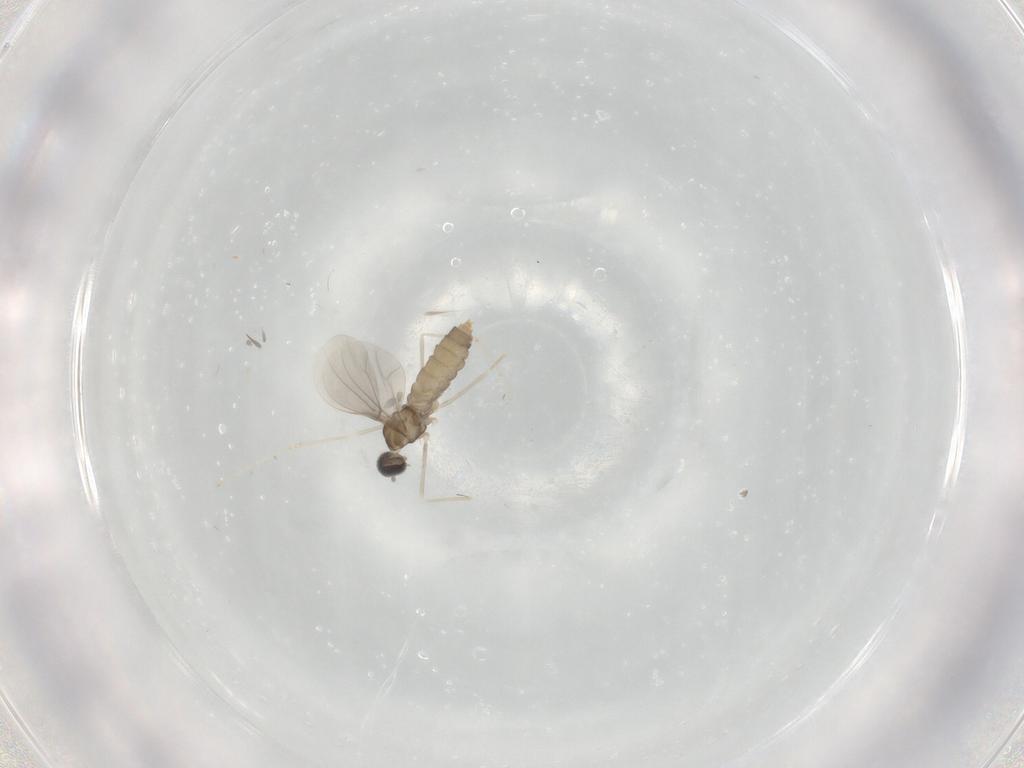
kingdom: Animalia
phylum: Arthropoda
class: Insecta
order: Diptera
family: Cecidomyiidae
